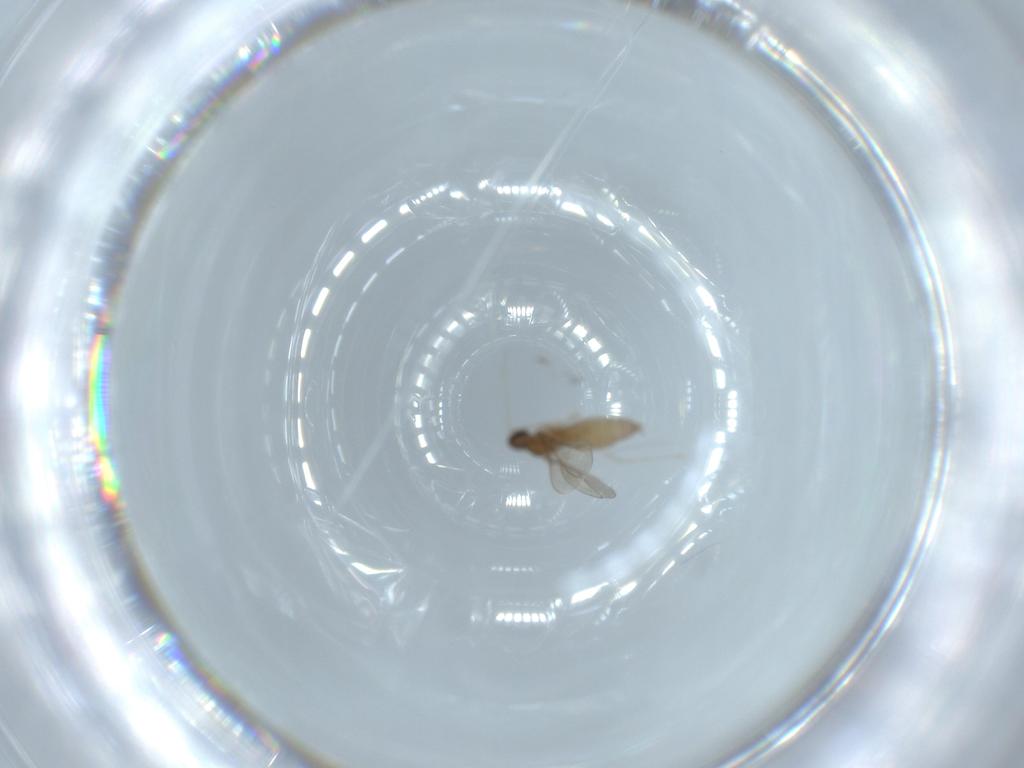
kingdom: Animalia
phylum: Arthropoda
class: Insecta
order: Diptera
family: Cecidomyiidae
